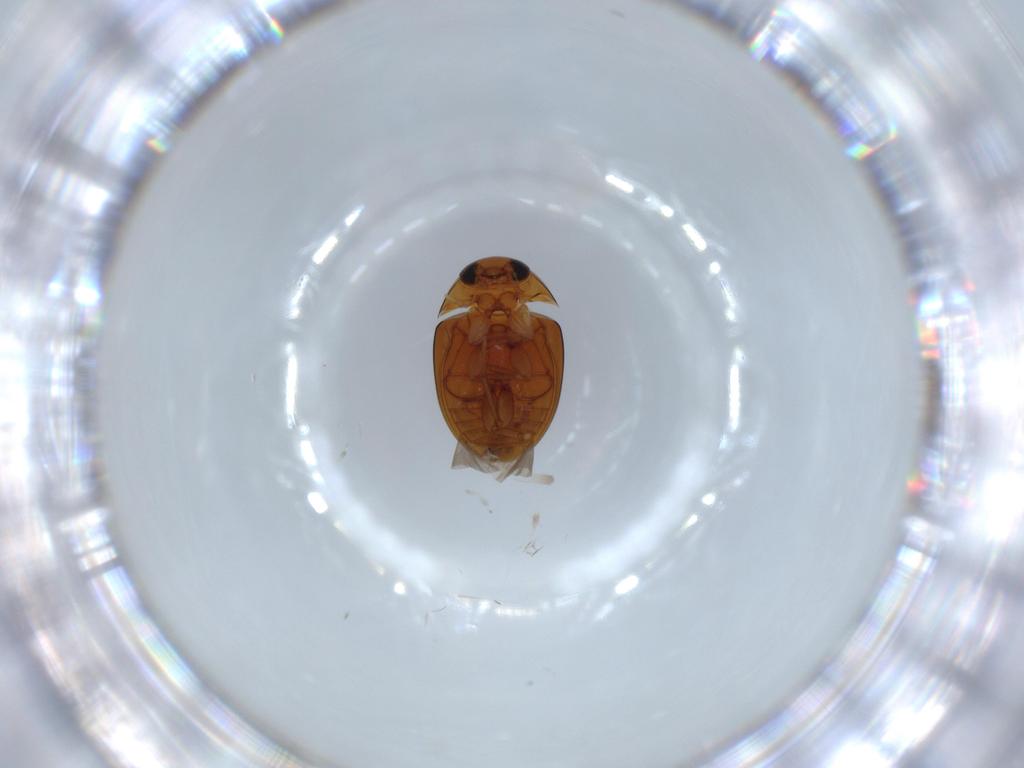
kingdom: Animalia
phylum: Arthropoda
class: Insecta
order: Coleoptera
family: Phalacridae
